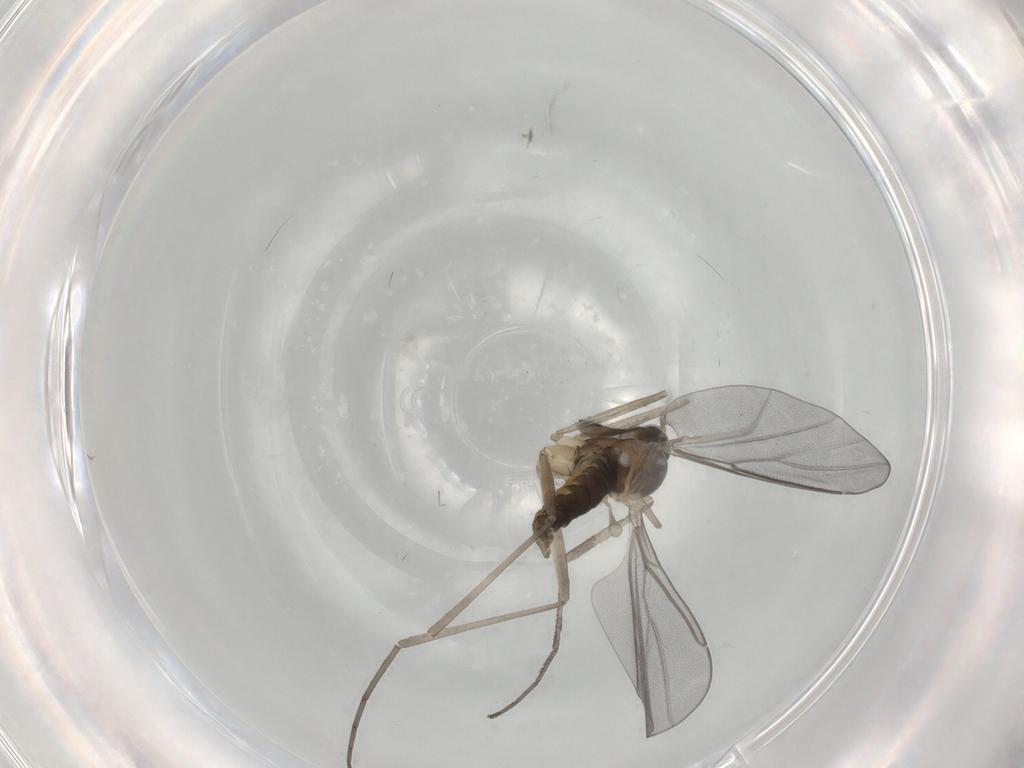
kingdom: Animalia
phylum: Arthropoda
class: Insecta
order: Diptera
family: Cecidomyiidae
